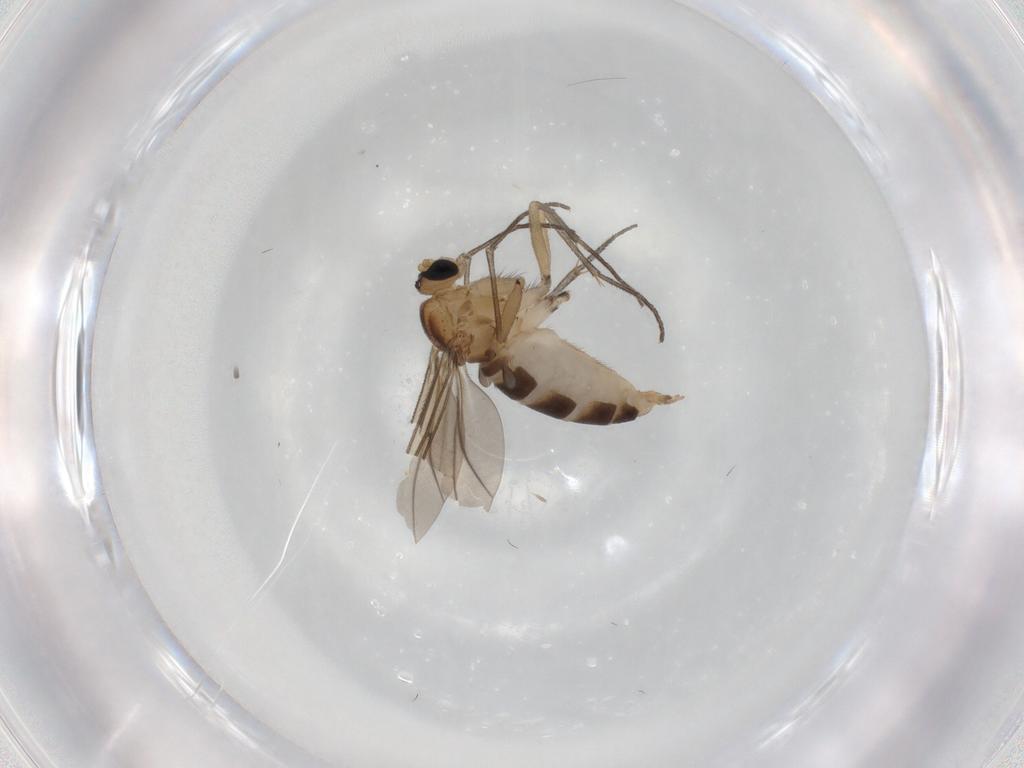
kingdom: Animalia
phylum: Arthropoda
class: Insecta
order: Diptera
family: Sciaridae
